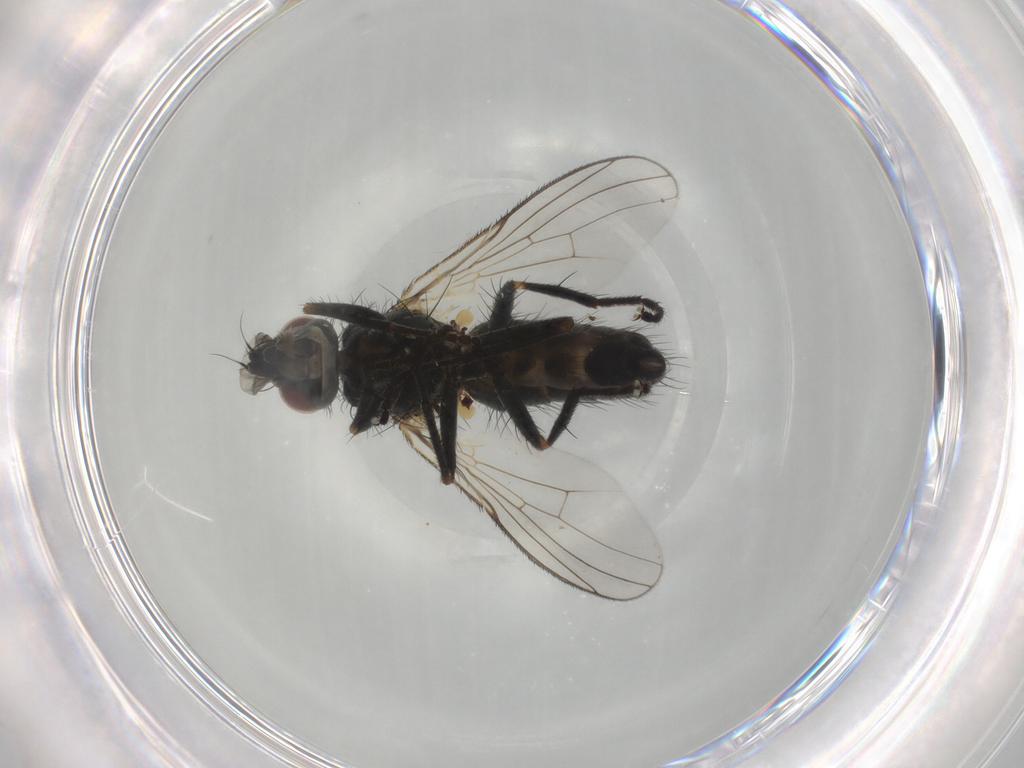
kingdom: Animalia
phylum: Arthropoda
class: Insecta
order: Diptera
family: Muscidae
